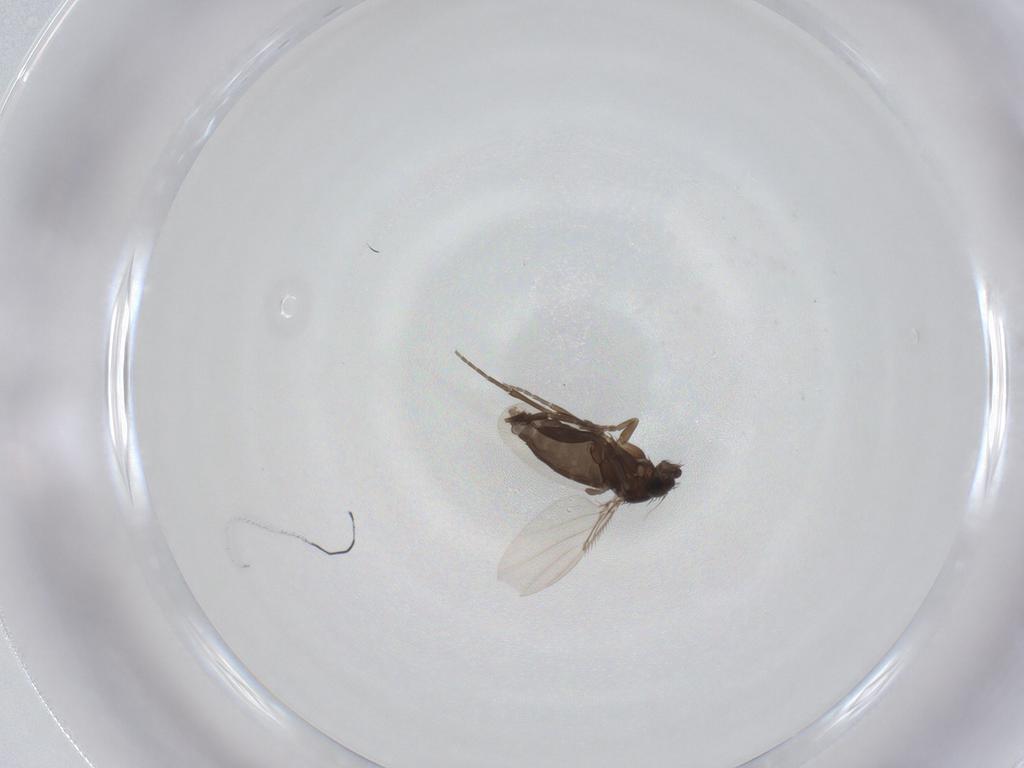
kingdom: Animalia
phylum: Arthropoda
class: Insecta
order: Diptera
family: Phoridae
